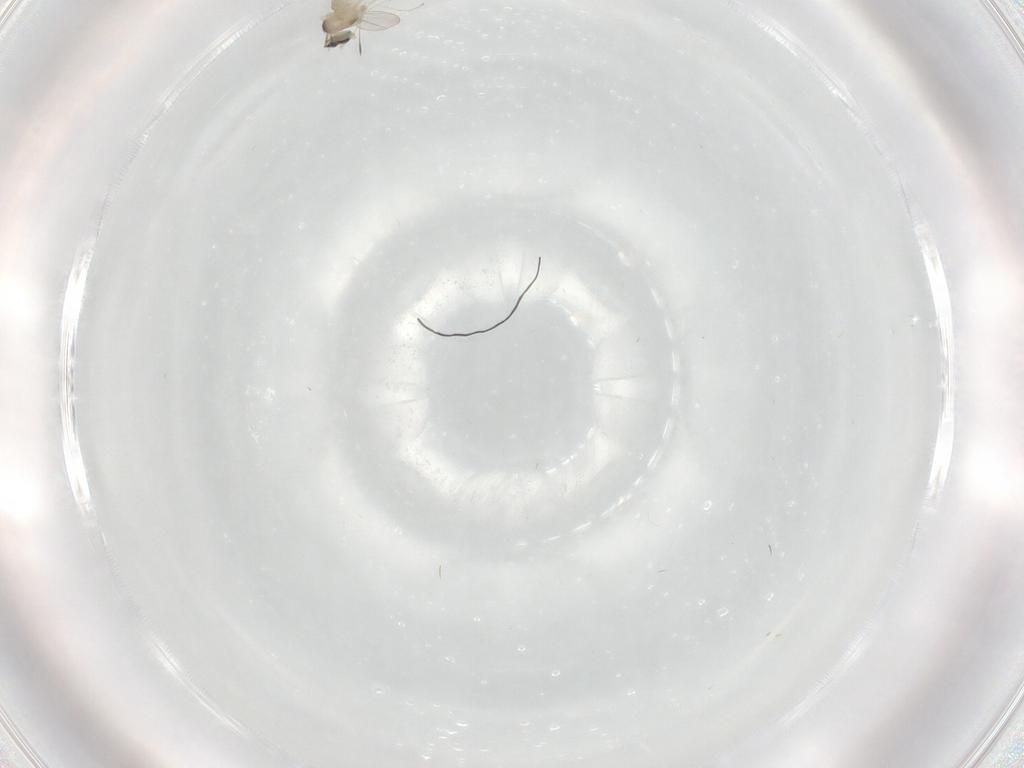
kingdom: Animalia
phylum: Arthropoda
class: Insecta
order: Diptera
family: Cecidomyiidae
